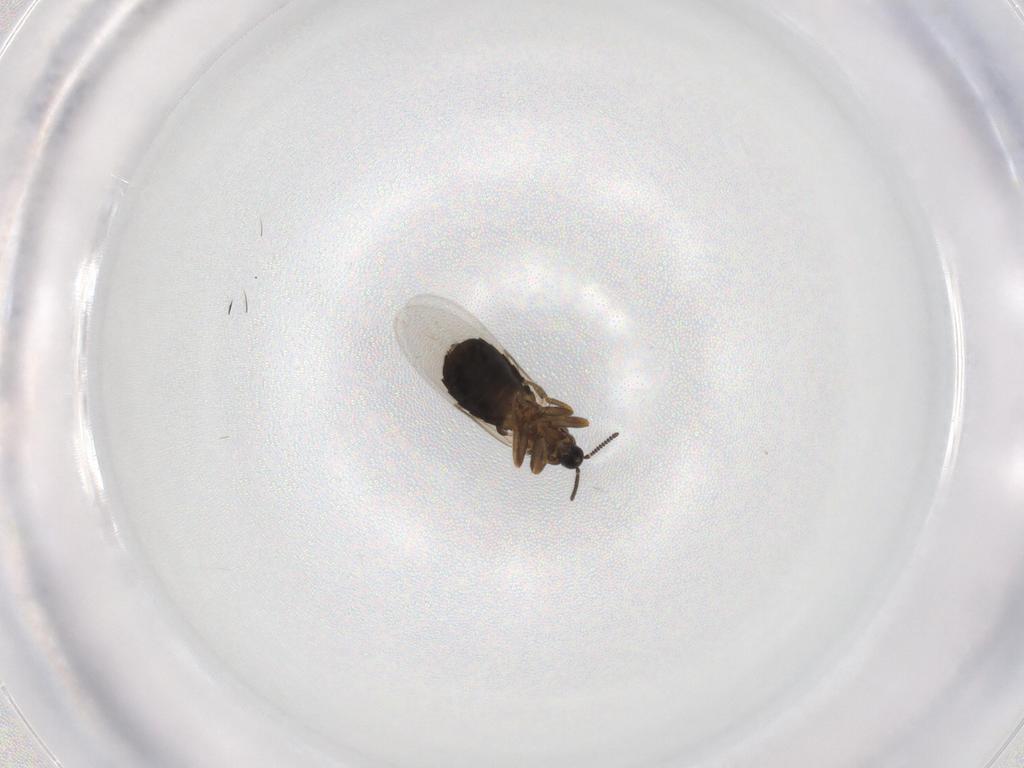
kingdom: Animalia
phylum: Arthropoda
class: Insecta
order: Diptera
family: Scatopsidae
